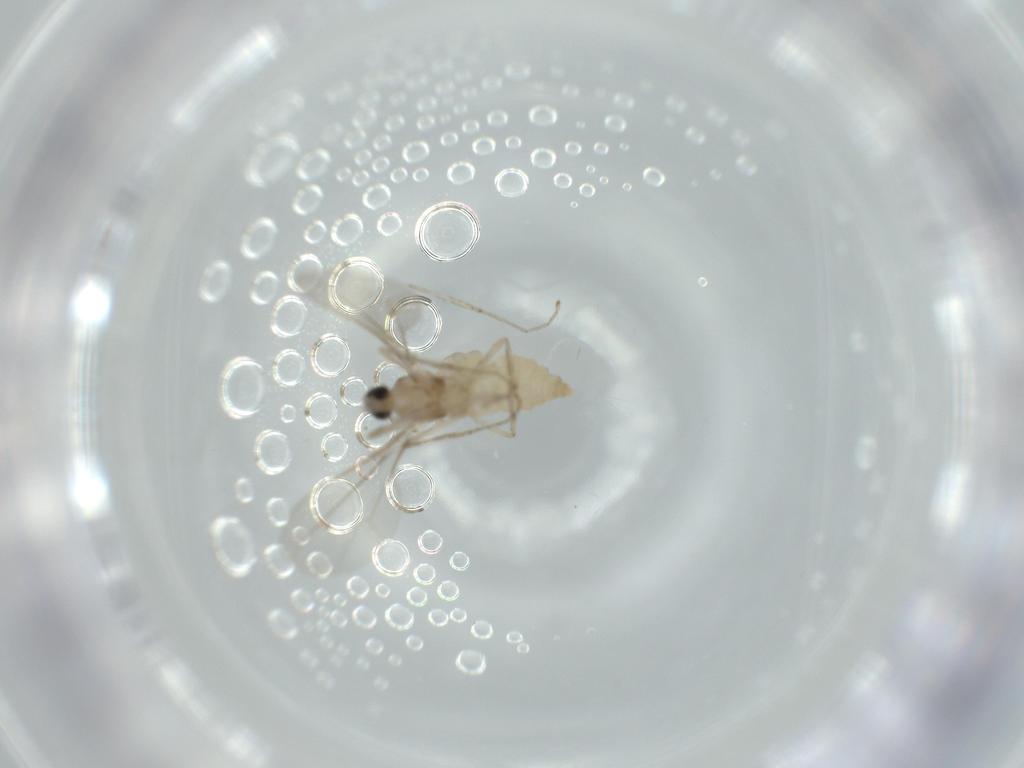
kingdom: Animalia
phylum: Arthropoda
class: Insecta
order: Diptera
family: Cecidomyiidae
